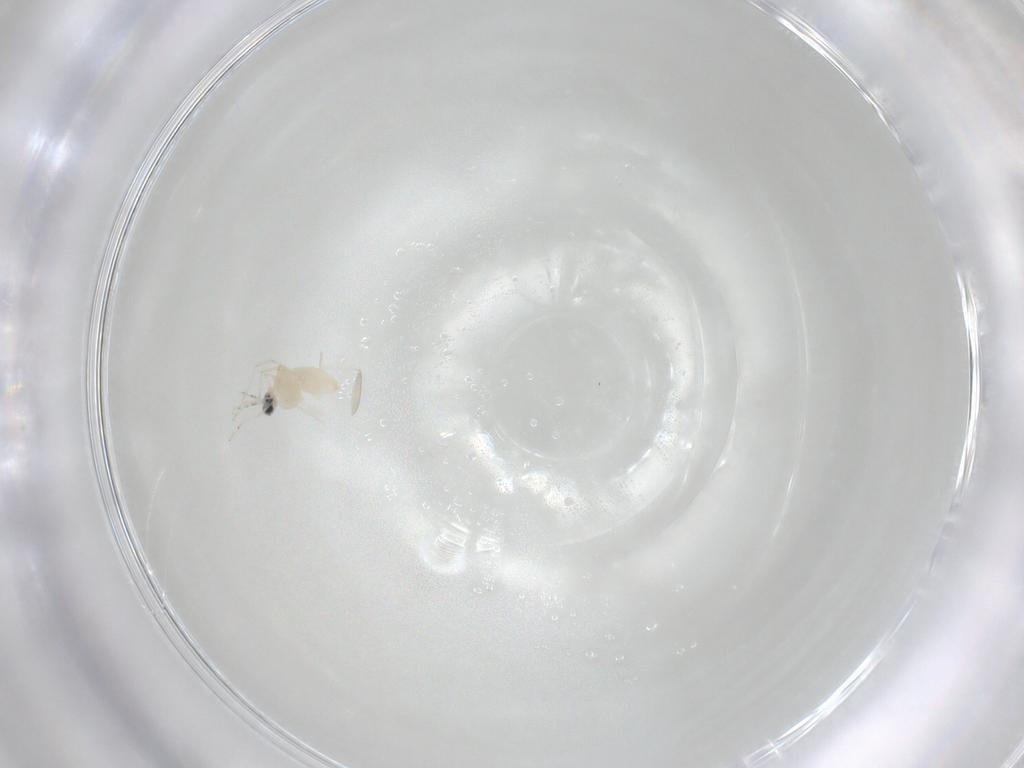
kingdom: Animalia
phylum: Arthropoda
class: Insecta
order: Diptera
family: Cecidomyiidae
